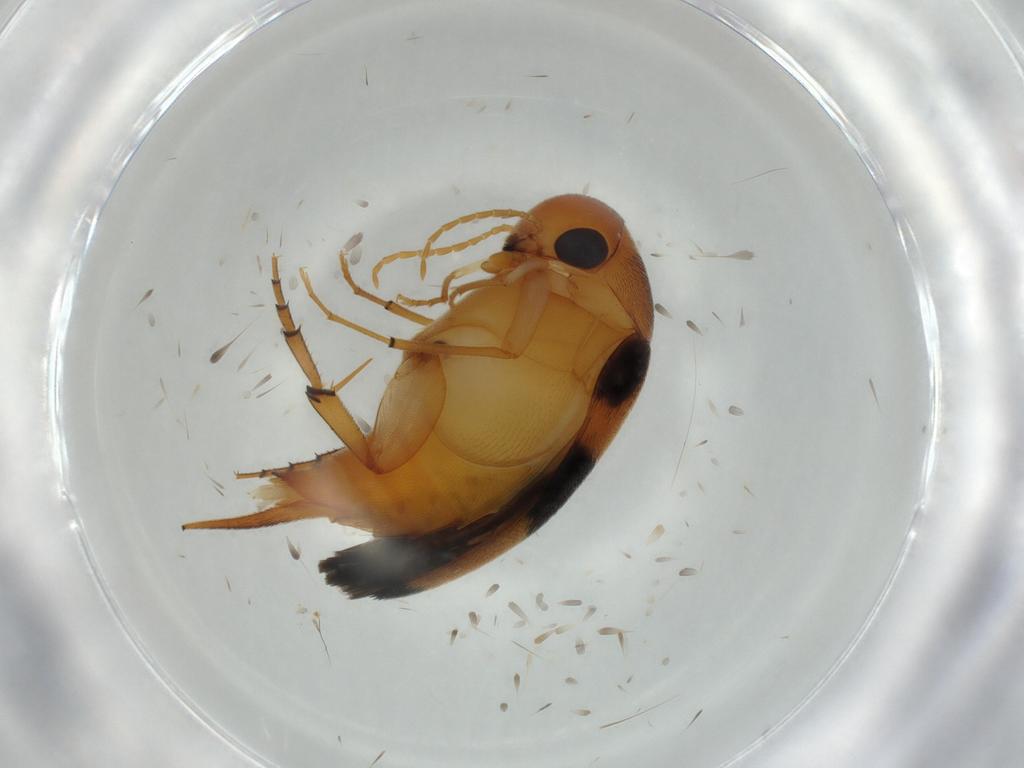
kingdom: Animalia
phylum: Arthropoda
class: Insecta
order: Coleoptera
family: Mordellidae
